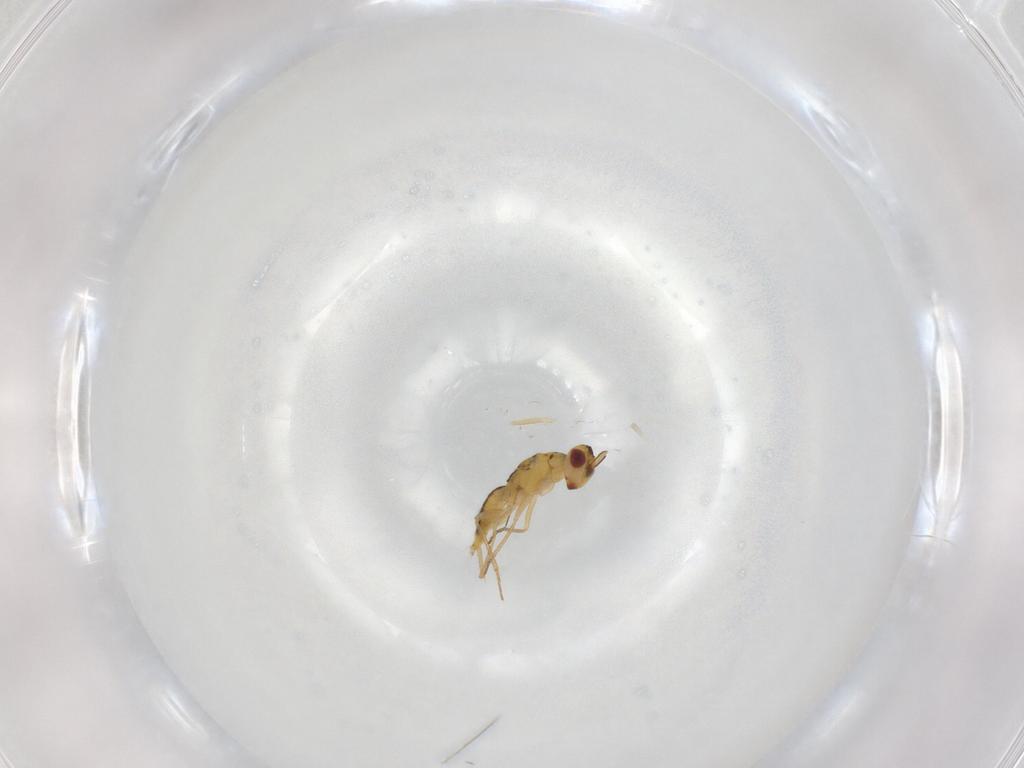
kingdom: Animalia
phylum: Arthropoda
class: Insecta
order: Hymenoptera
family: Eulophidae
